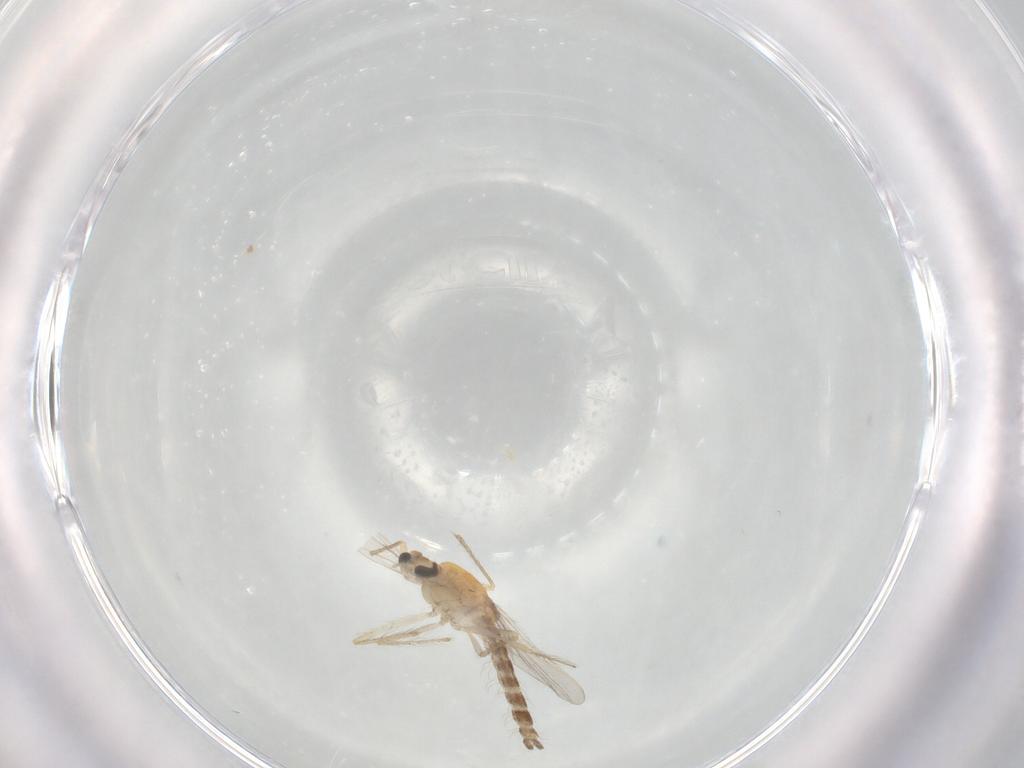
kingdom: Animalia
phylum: Arthropoda
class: Insecta
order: Diptera
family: Chironomidae
